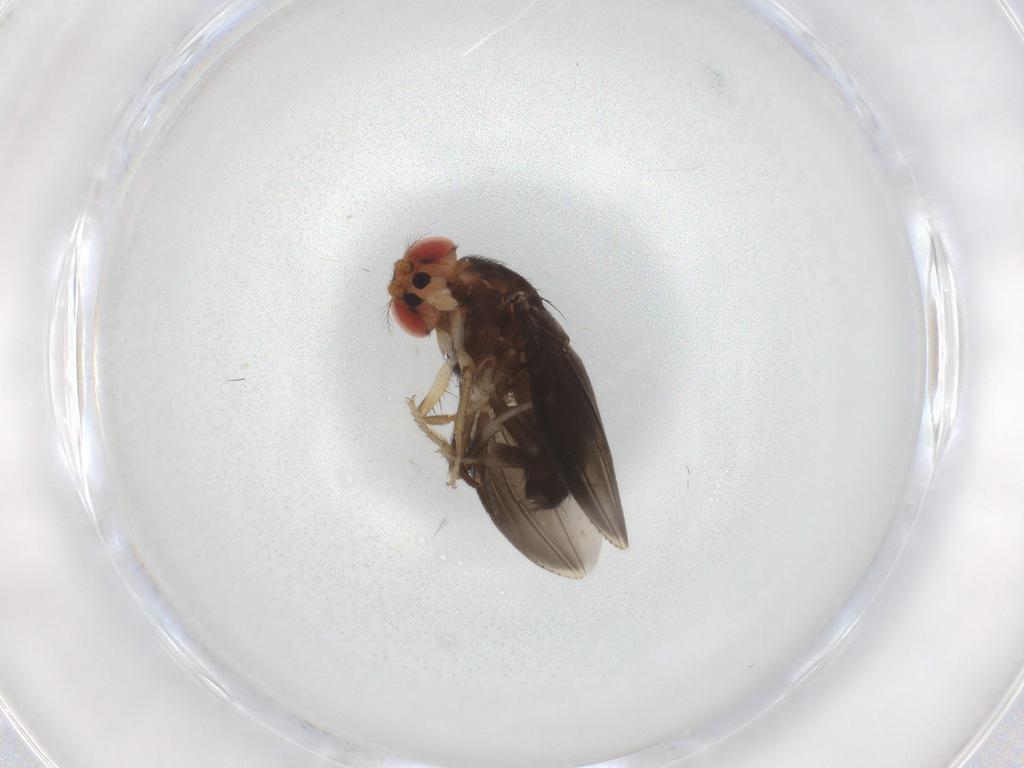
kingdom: Animalia
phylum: Arthropoda
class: Insecta
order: Diptera
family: Drosophilidae
